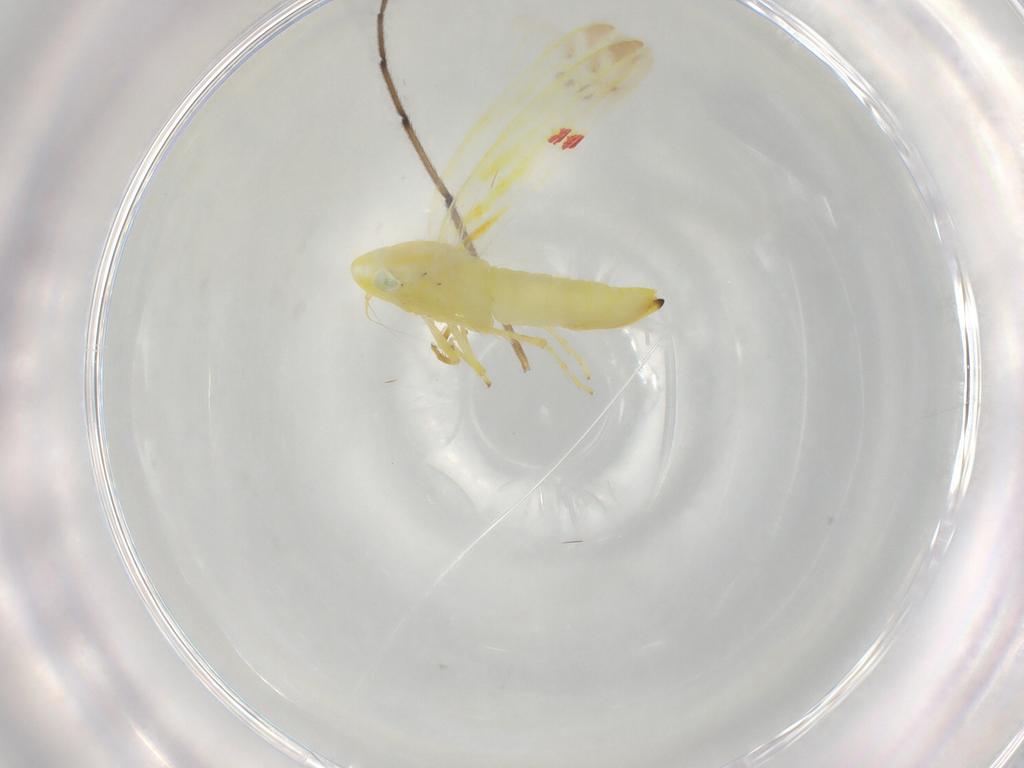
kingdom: Animalia
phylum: Arthropoda
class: Insecta
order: Hemiptera
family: Cicadellidae
